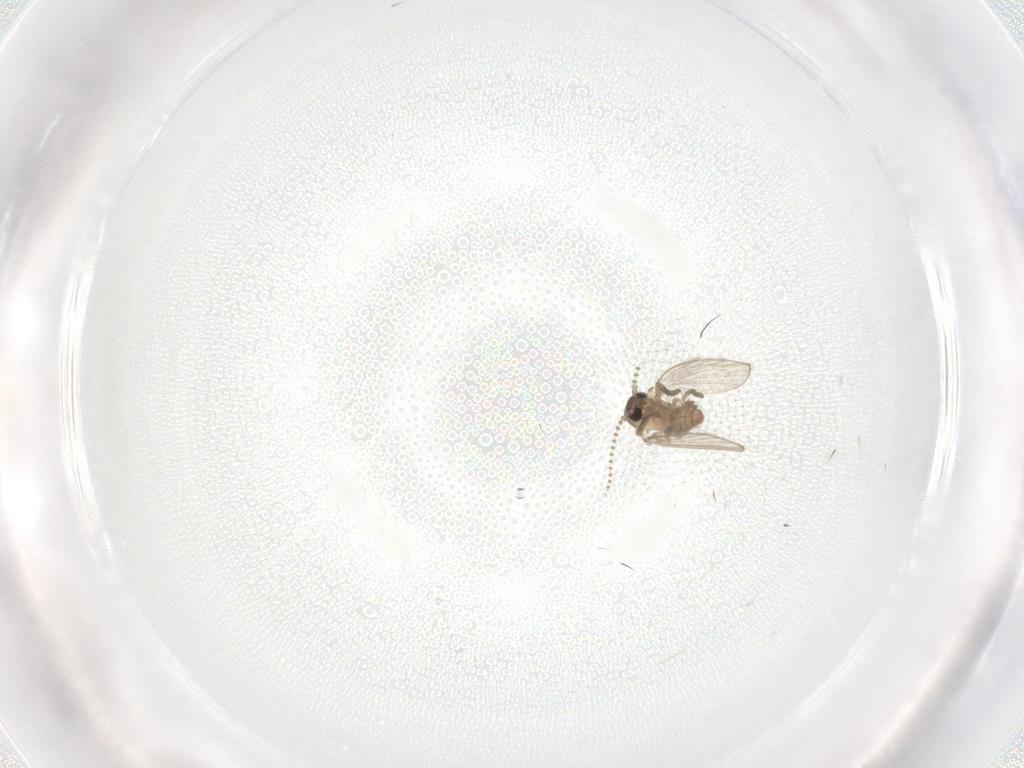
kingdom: Animalia
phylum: Arthropoda
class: Insecta
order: Diptera
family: Chironomidae
